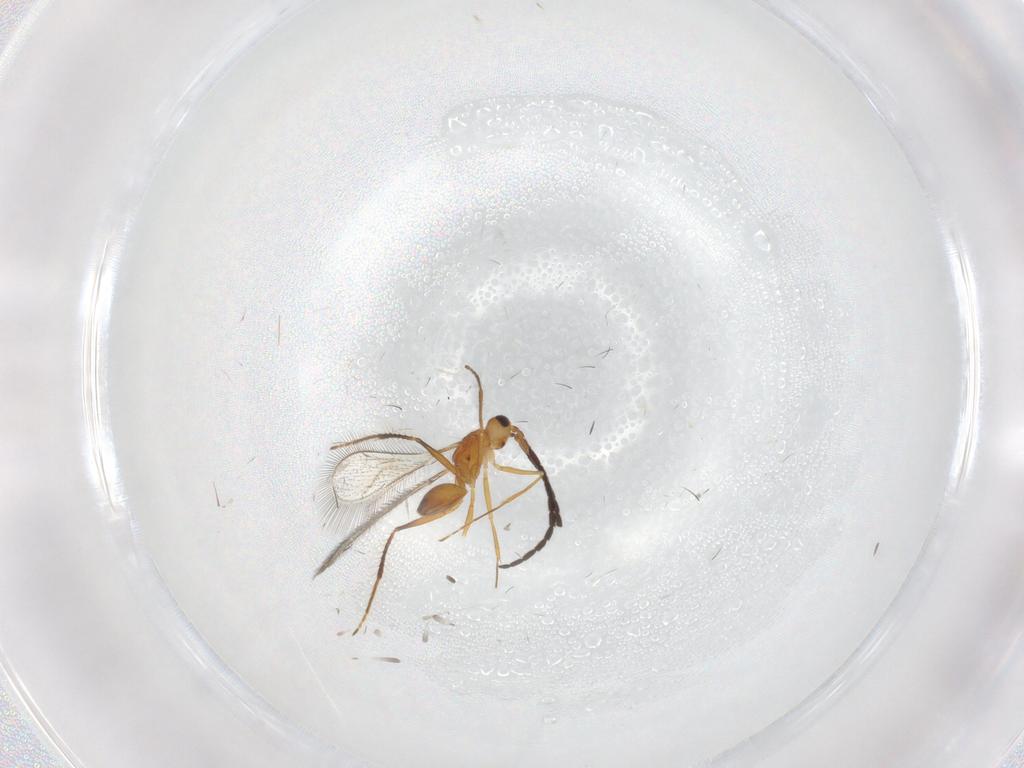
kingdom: Animalia
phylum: Arthropoda
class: Insecta
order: Hymenoptera
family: Mymaridae
